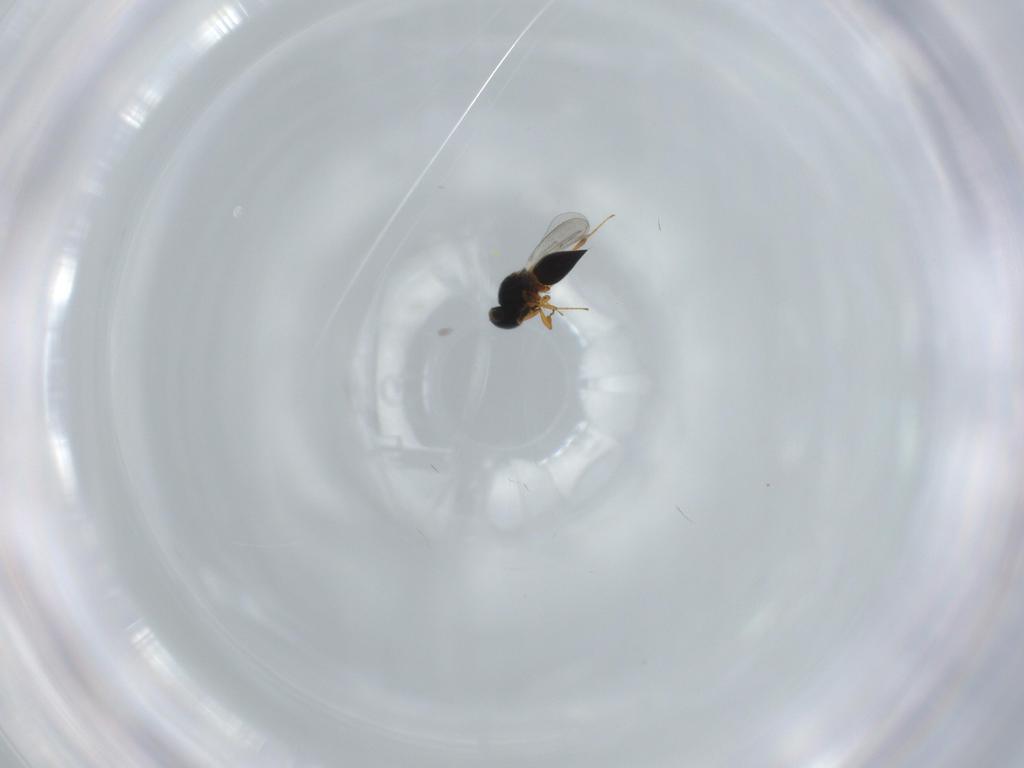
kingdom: Animalia
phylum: Arthropoda
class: Insecta
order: Hymenoptera
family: Platygastridae
